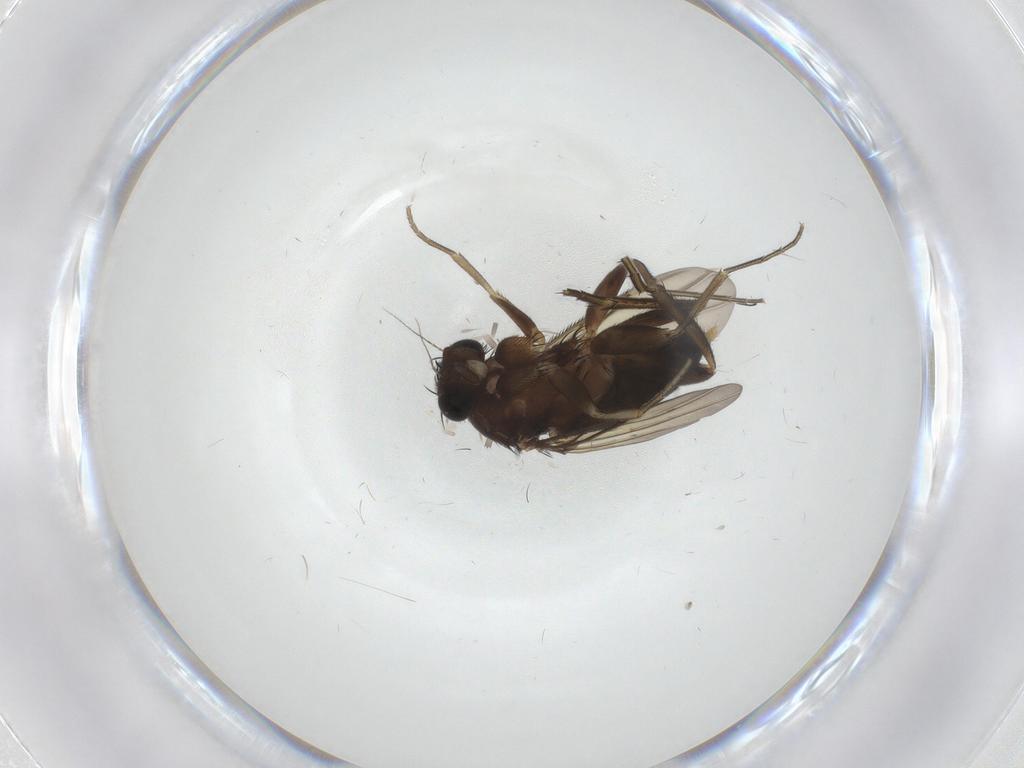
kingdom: Animalia
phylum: Arthropoda
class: Insecta
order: Diptera
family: Phoridae
